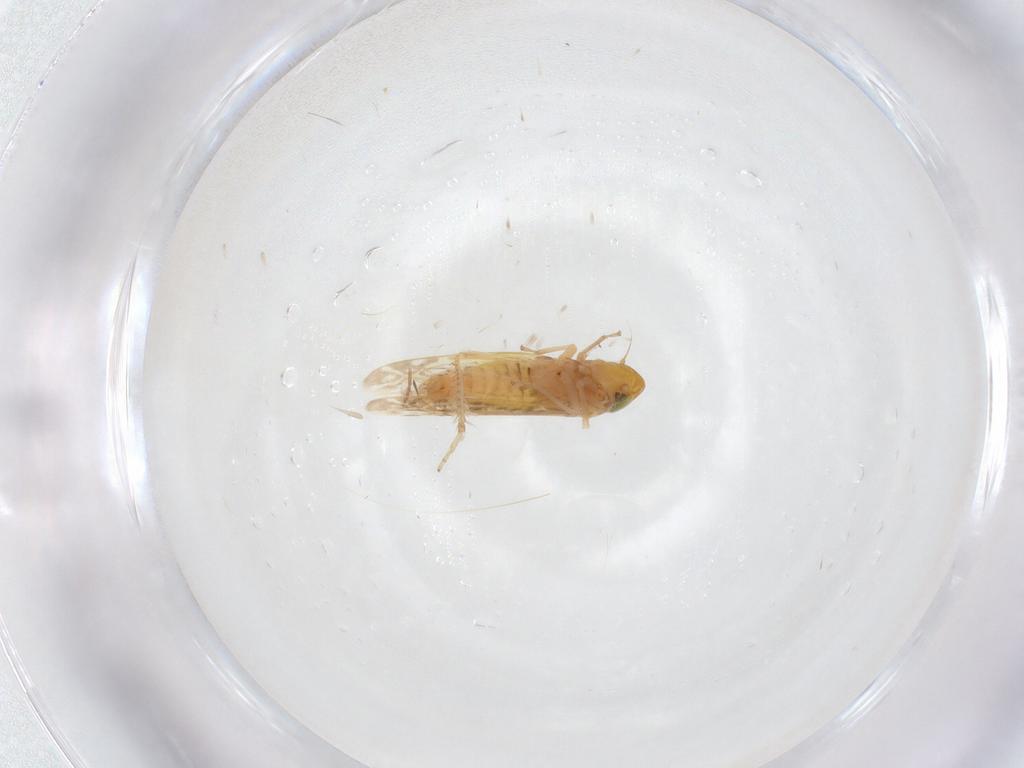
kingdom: Animalia
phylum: Arthropoda
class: Insecta
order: Hemiptera
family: Cicadellidae
